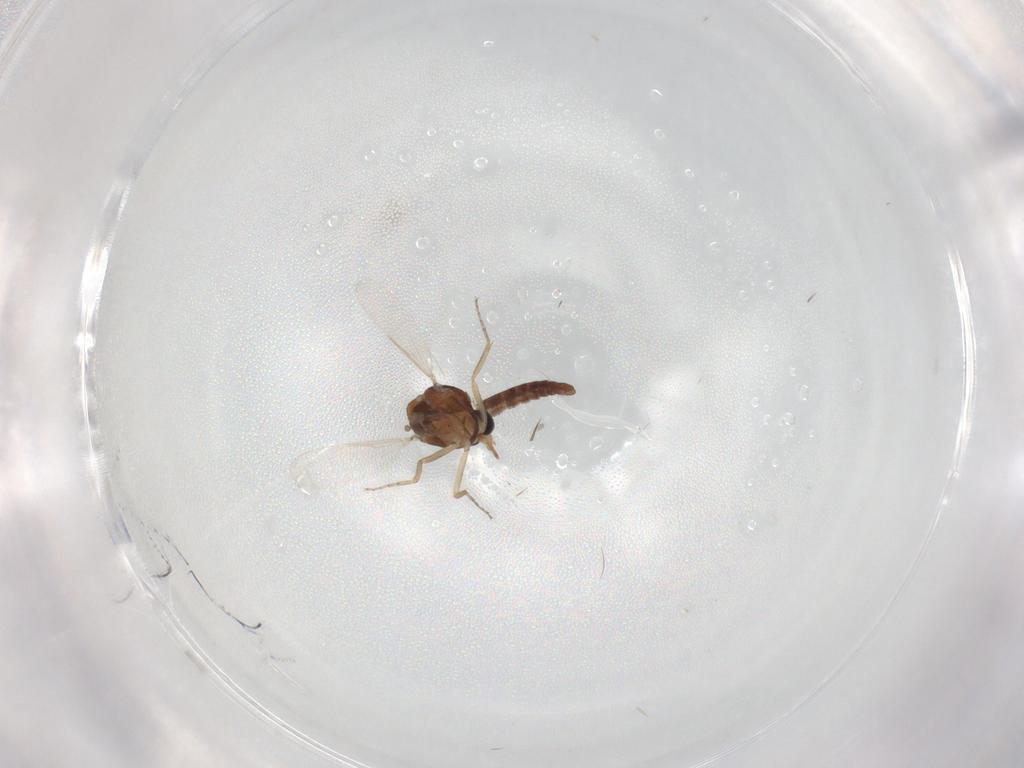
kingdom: Animalia
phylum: Arthropoda
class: Insecta
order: Diptera
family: Ceratopogonidae
